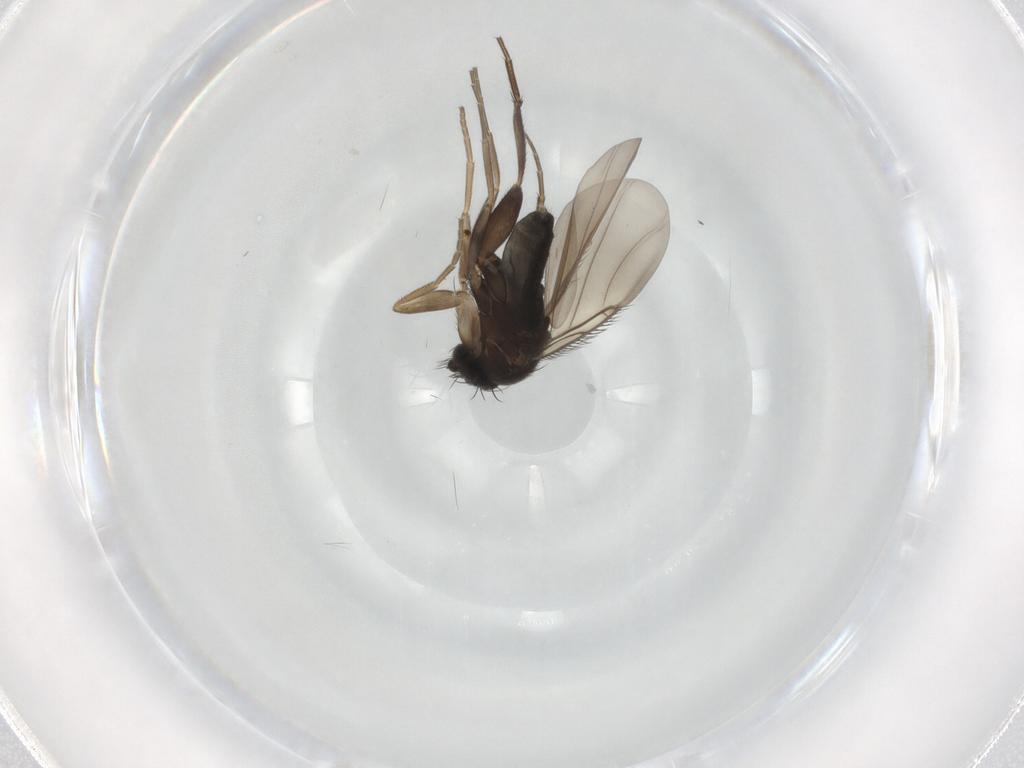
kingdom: Animalia
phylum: Arthropoda
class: Insecta
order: Diptera
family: Phoridae
